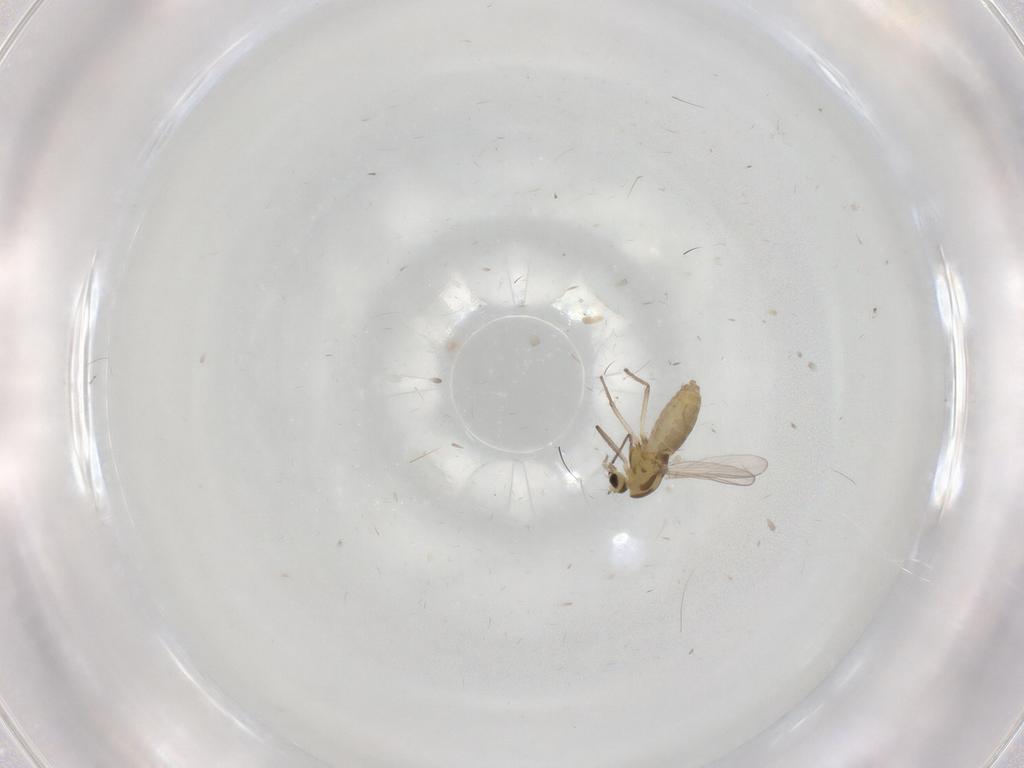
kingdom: Animalia
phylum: Arthropoda
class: Insecta
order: Diptera
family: Chironomidae
